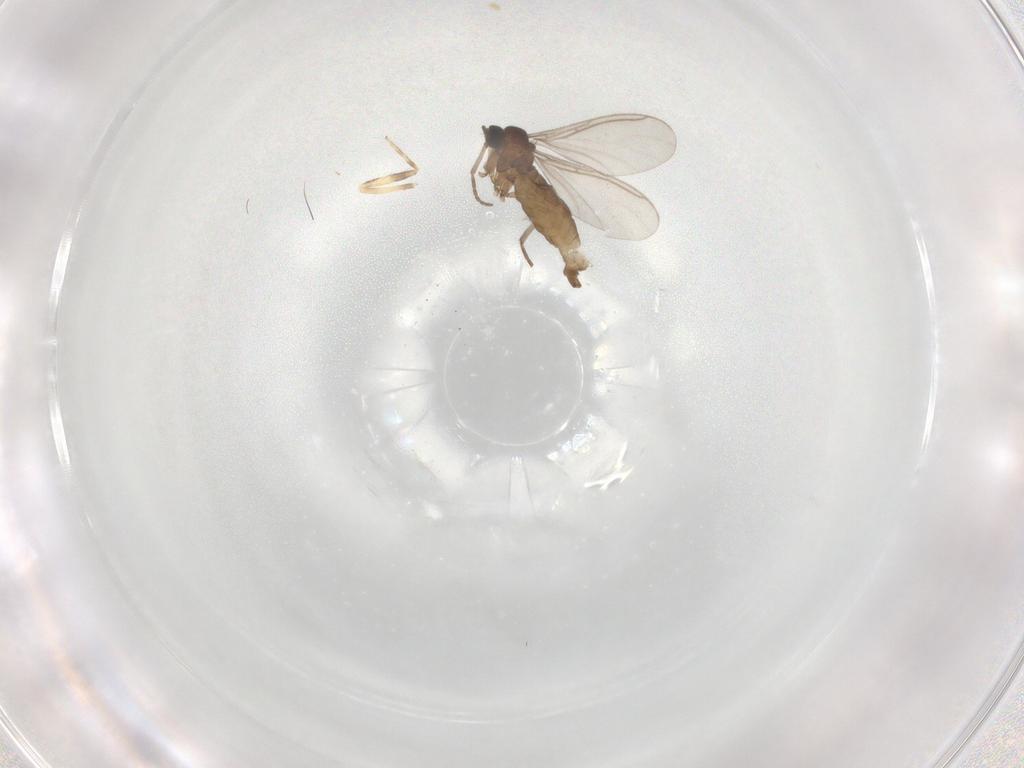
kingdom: Animalia
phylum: Arthropoda
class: Insecta
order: Diptera
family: Sciaridae
